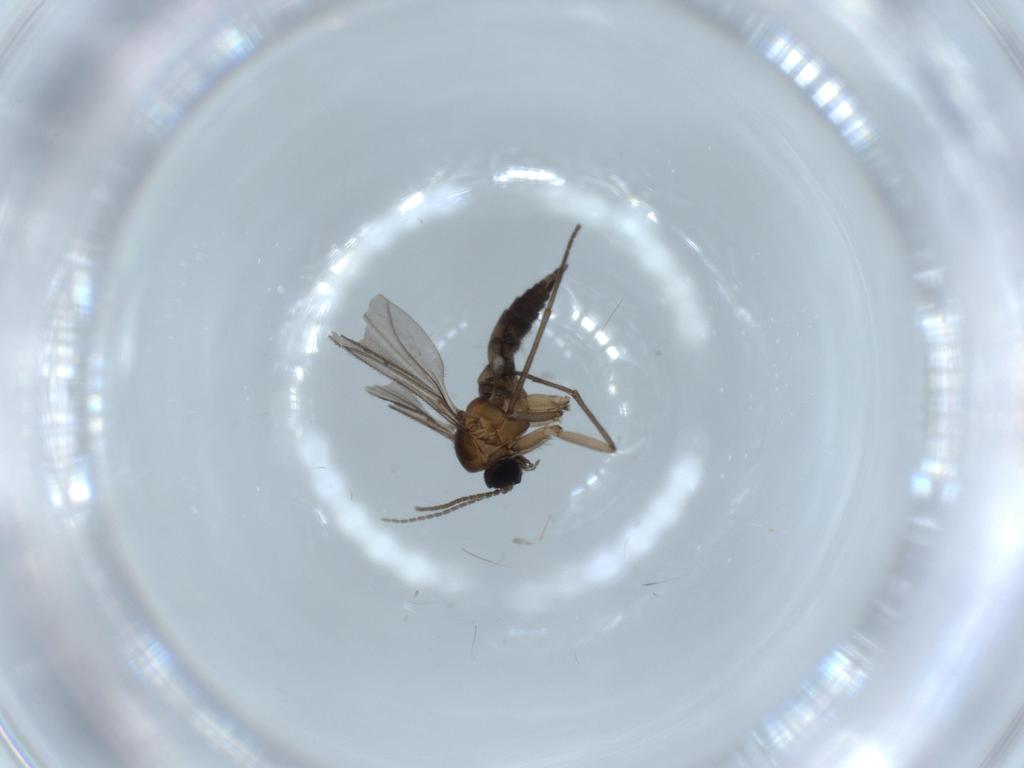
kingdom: Animalia
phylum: Arthropoda
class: Insecta
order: Diptera
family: Sciaridae
